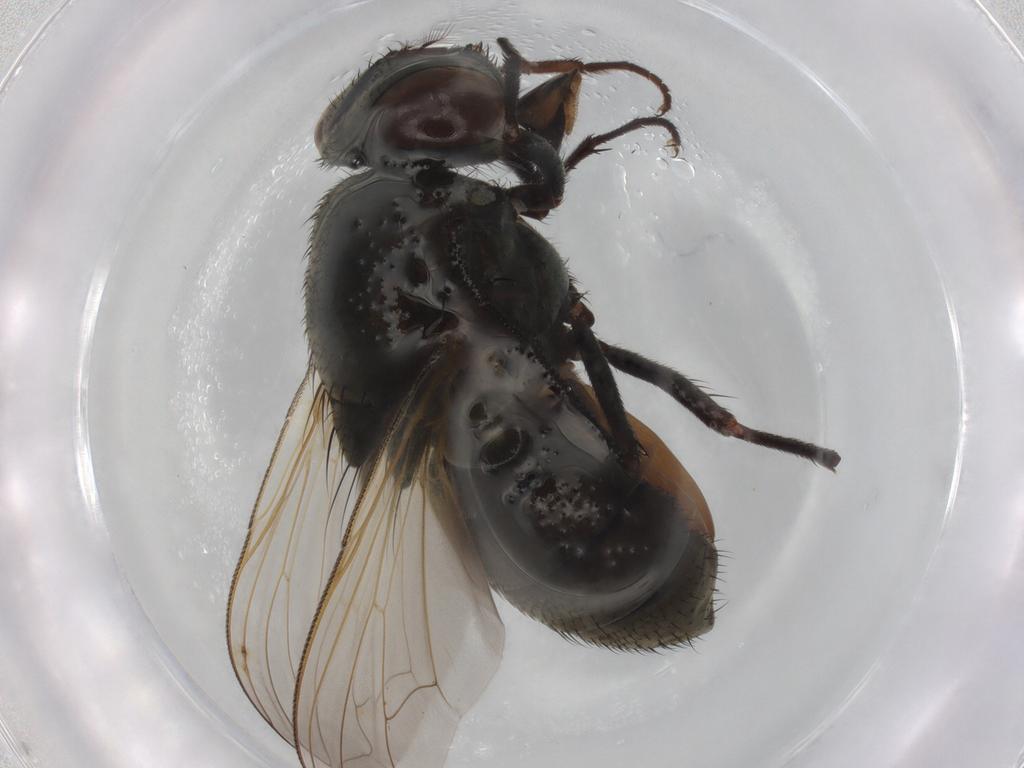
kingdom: Animalia
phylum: Arthropoda
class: Insecta
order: Diptera
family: Muscidae
